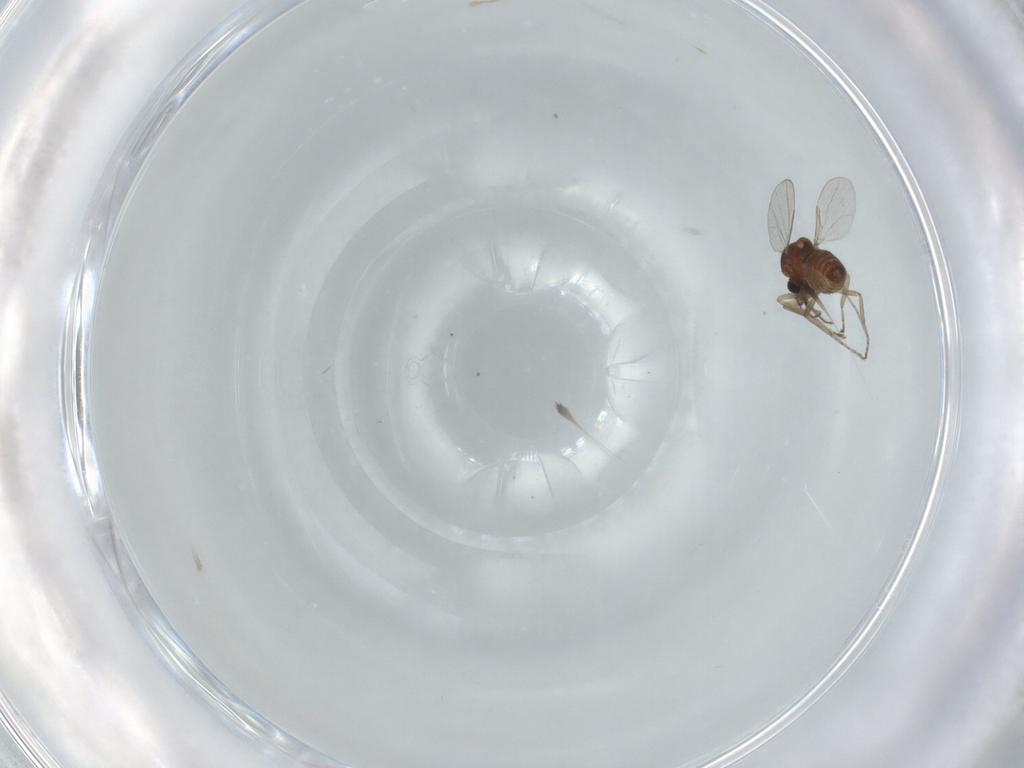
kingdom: Animalia
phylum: Arthropoda
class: Insecta
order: Diptera
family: Ceratopogonidae
